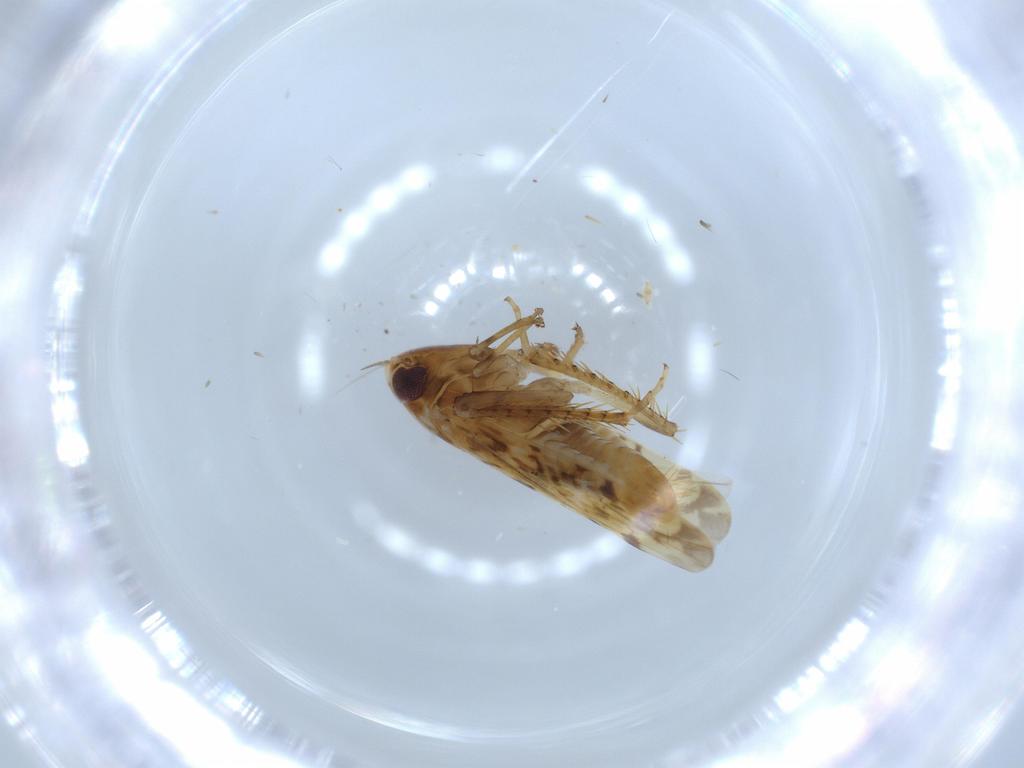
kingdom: Animalia
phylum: Arthropoda
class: Insecta
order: Hemiptera
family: Cicadellidae
